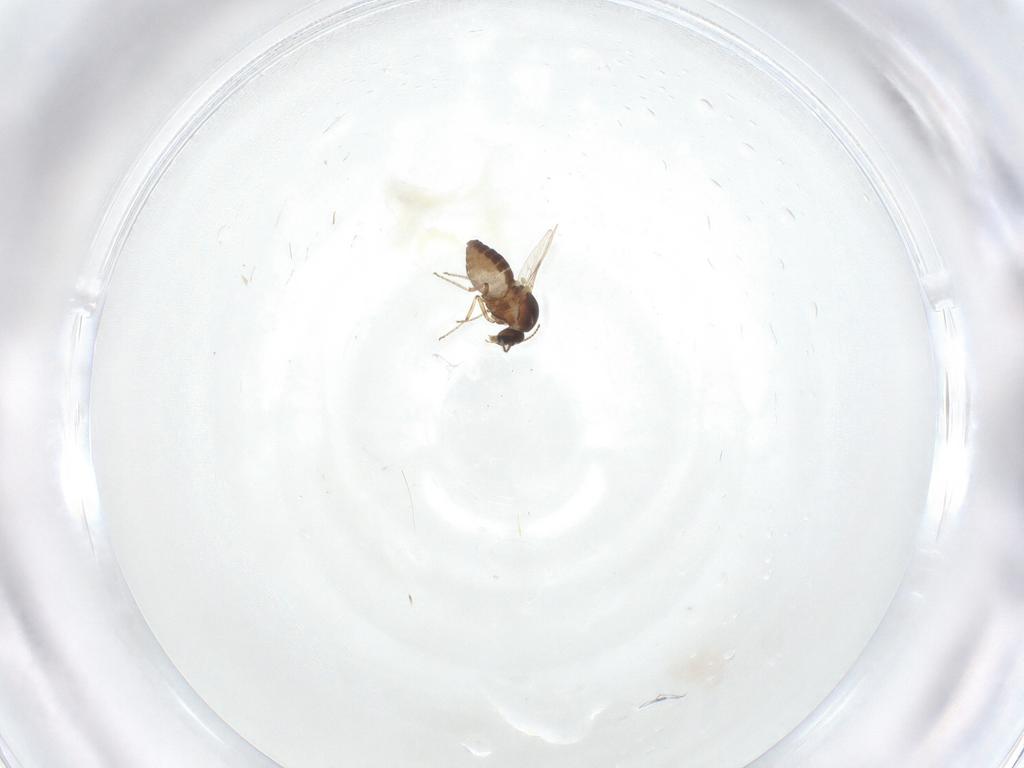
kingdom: Animalia
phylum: Arthropoda
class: Insecta
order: Diptera
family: Ceratopogonidae
